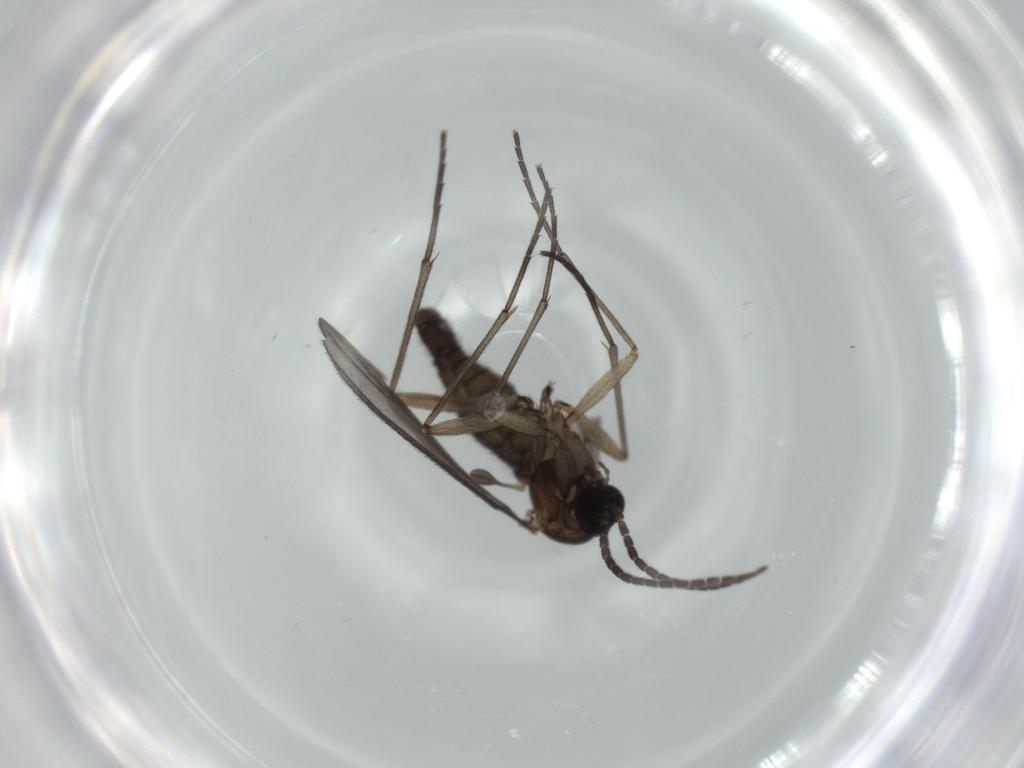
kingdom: Animalia
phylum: Arthropoda
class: Insecta
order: Diptera
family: Sciaridae
